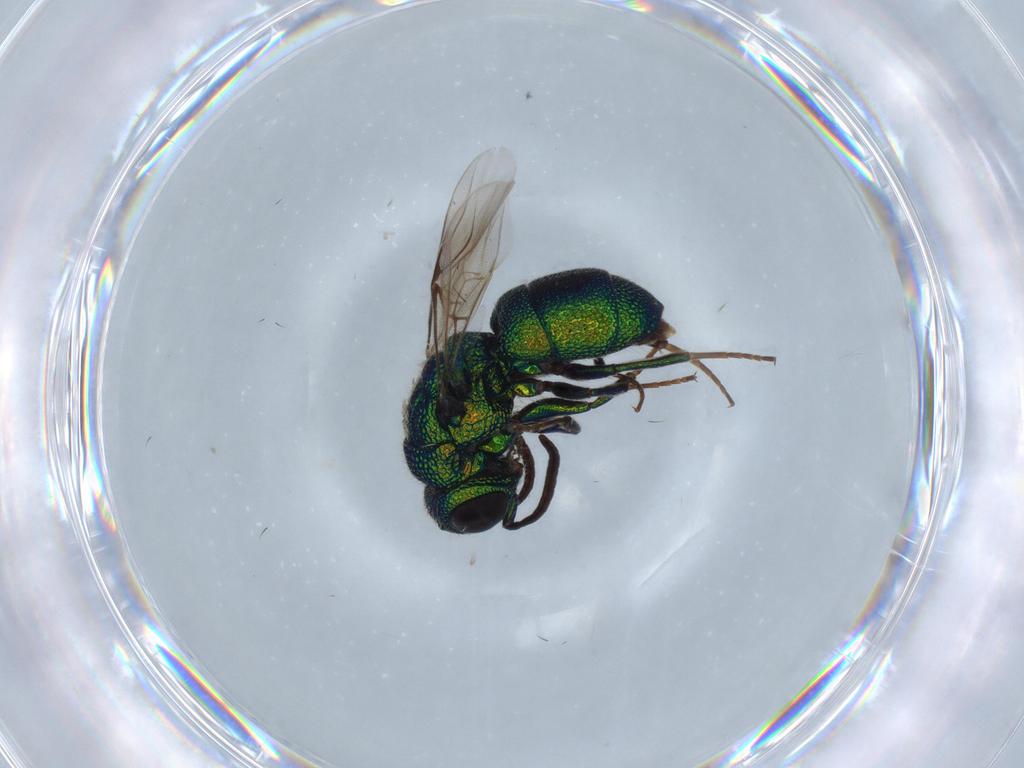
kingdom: Animalia
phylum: Arthropoda
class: Insecta
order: Hymenoptera
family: Chrysididae
